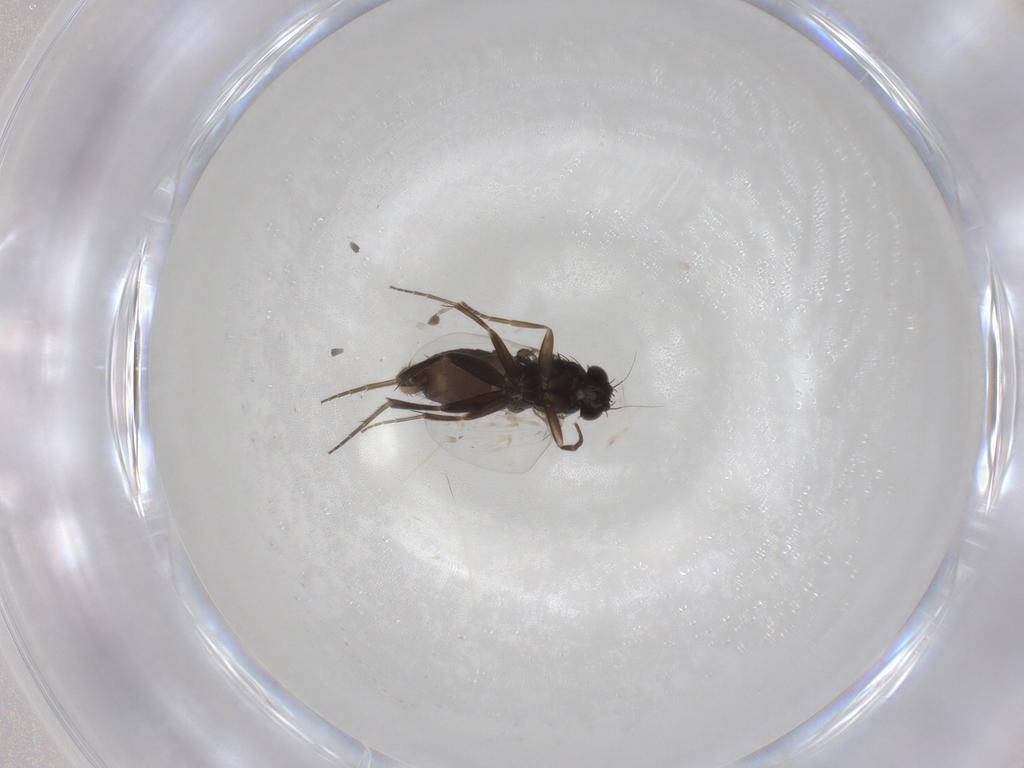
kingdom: Animalia
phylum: Arthropoda
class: Insecta
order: Diptera
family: Phoridae
